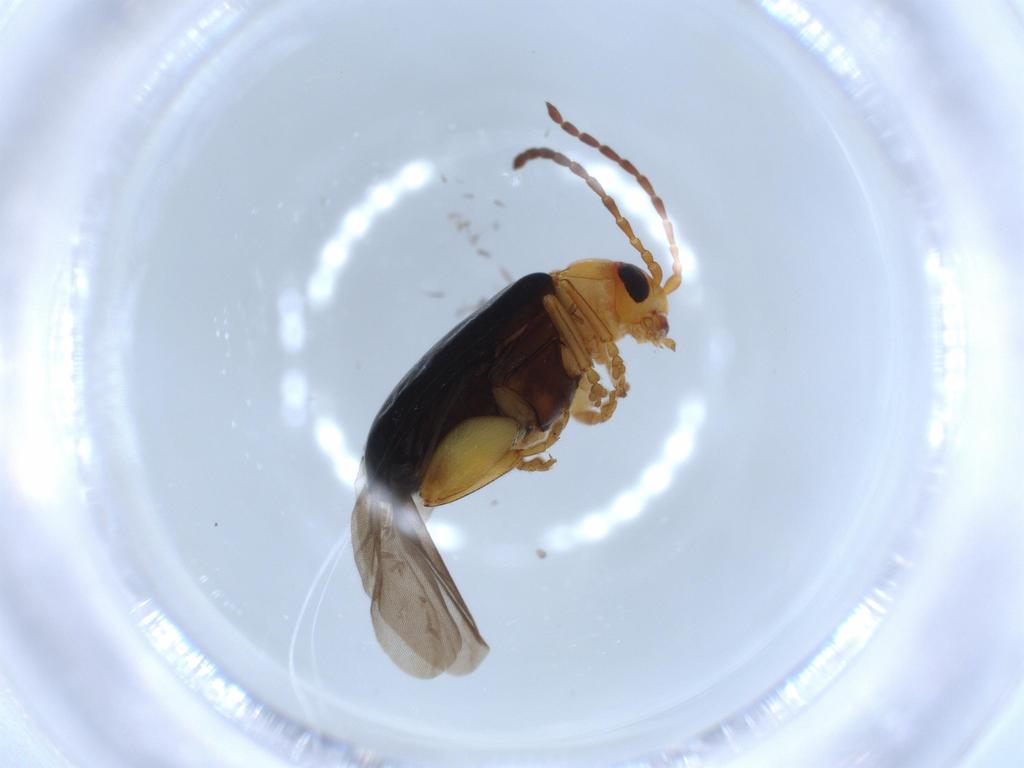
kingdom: Animalia
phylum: Arthropoda
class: Insecta
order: Coleoptera
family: Chrysomelidae
